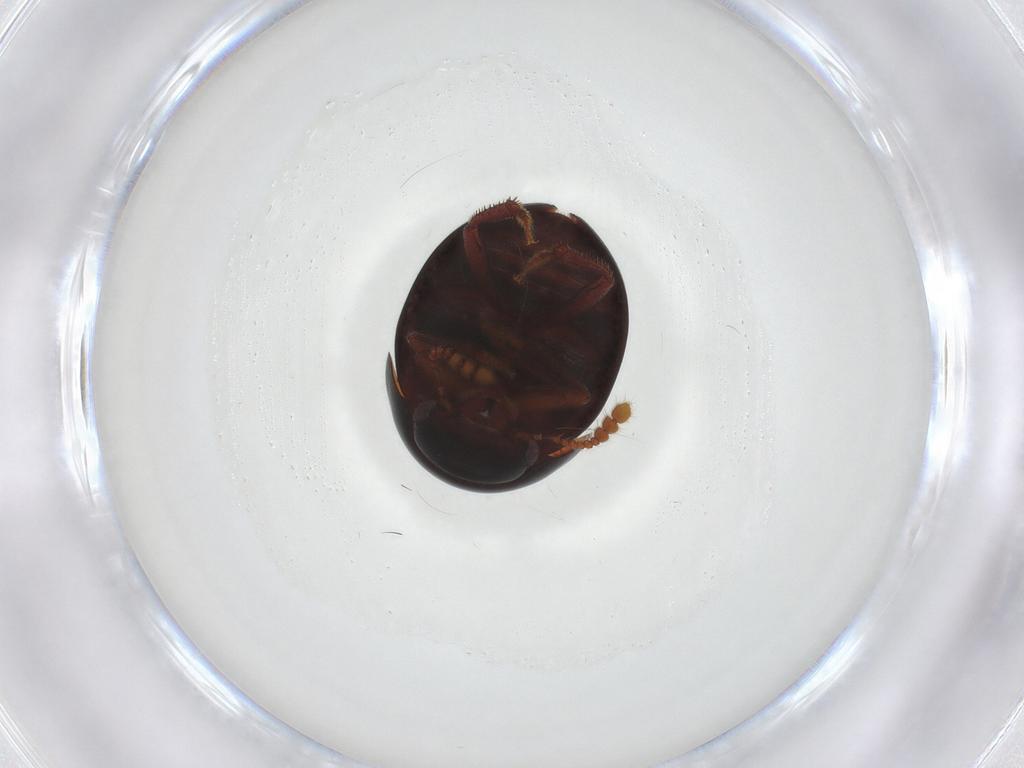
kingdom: Animalia
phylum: Arthropoda
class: Insecta
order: Coleoptera
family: Leiodidae
